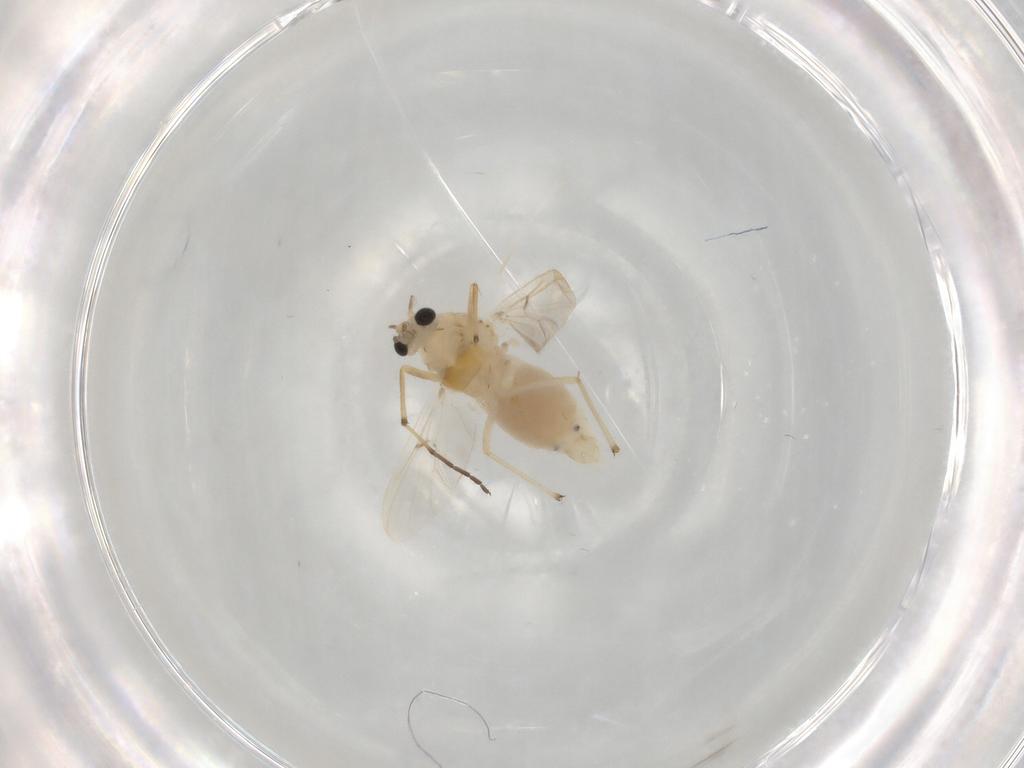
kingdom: Animalia
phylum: Arthropoda
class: Insecta
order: Diptera
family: Chironomidae
